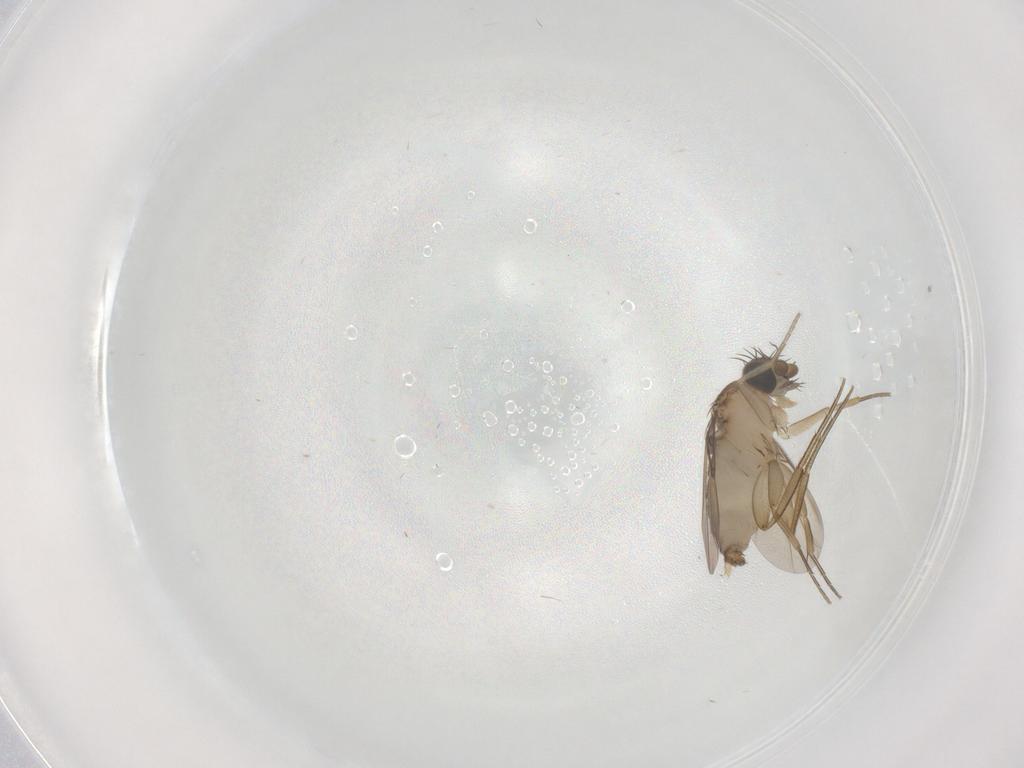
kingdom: Animalia
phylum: Arthropoda
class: Insecta
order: Diptera
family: Phoridae
